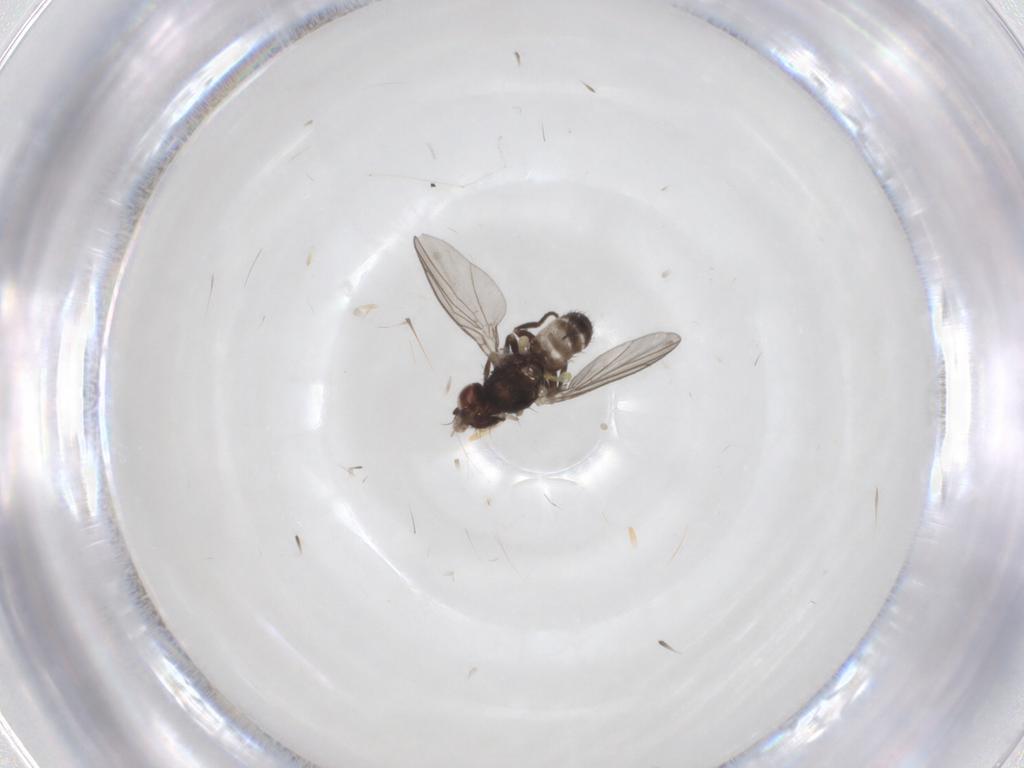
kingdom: Animalia
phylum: Arthropoda
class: Insecta
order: Diptera
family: Agromyzidae
